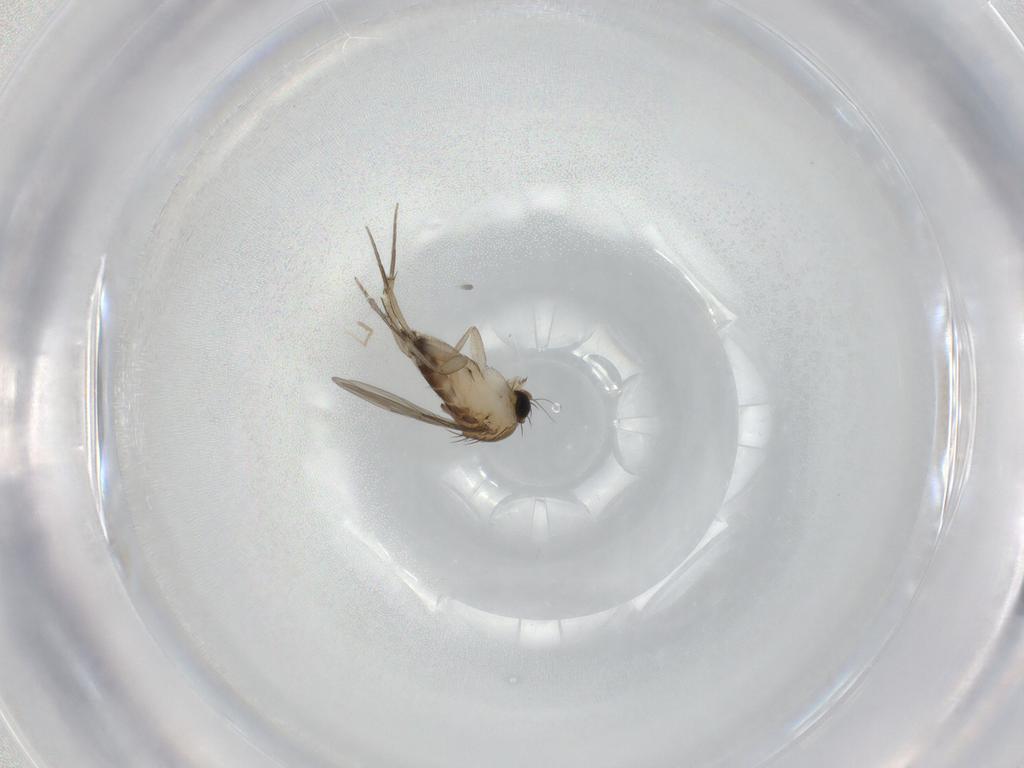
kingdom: Animalia
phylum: Arthropoda
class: Insecta
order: Diptera
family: Phoridae
